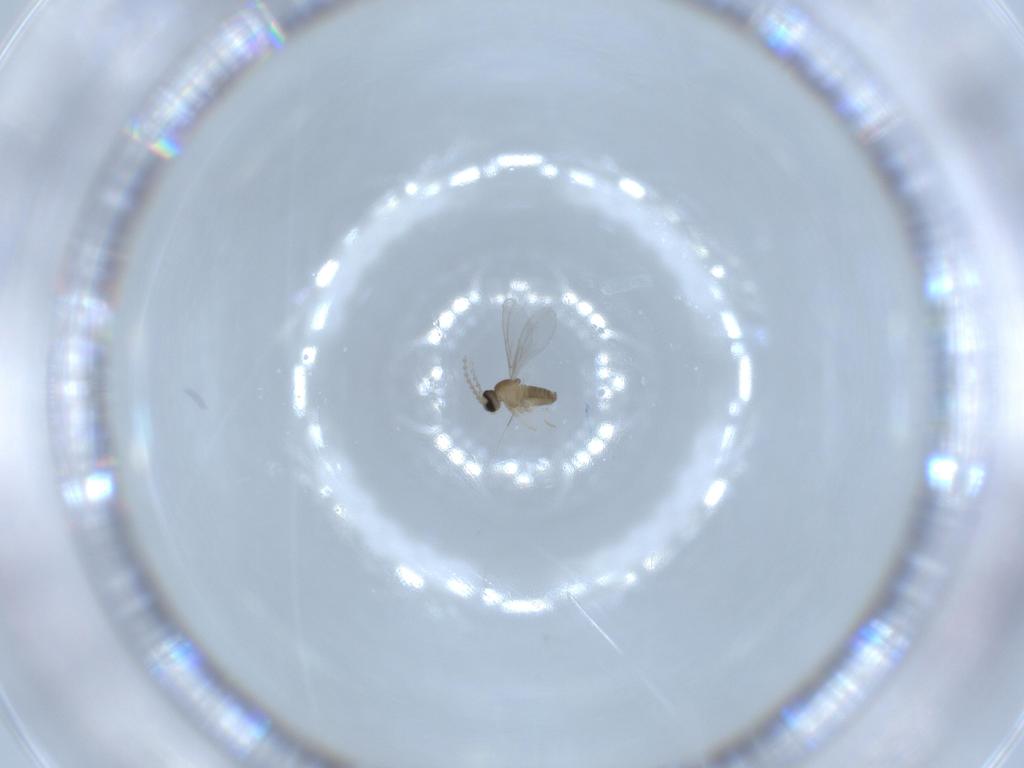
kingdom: Animalia
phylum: Arthropoda
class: Insecta
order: Diptera
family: Cecidomyiidae
